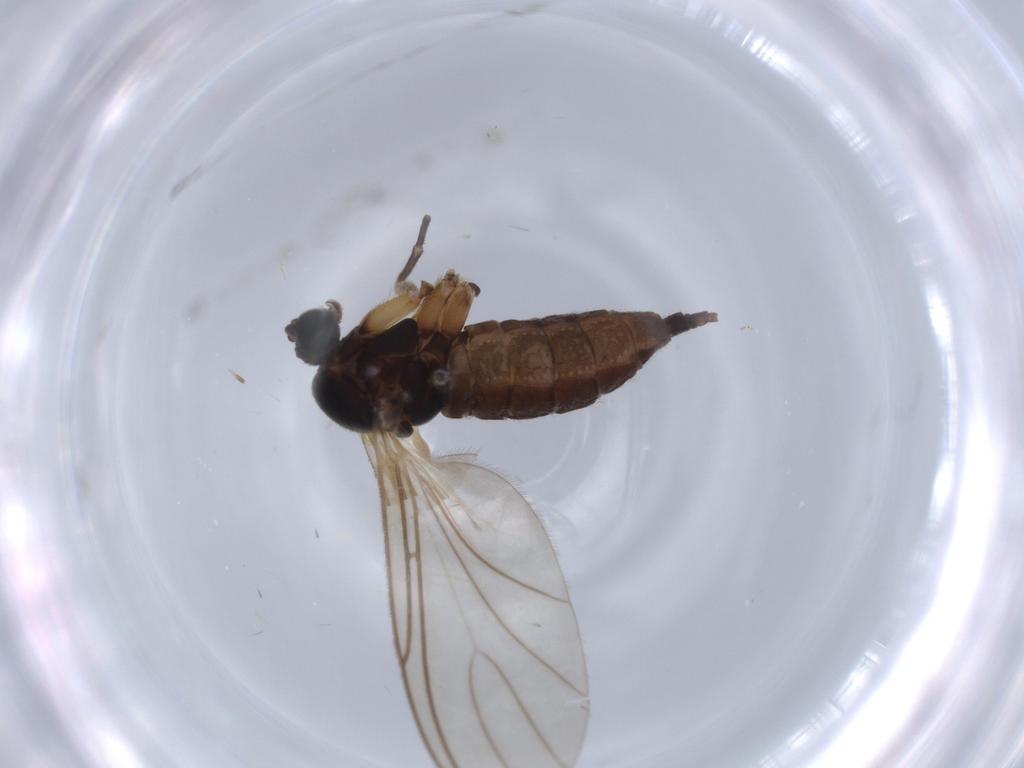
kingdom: Animalia
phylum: Arthropoda
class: Insecta
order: Diptera
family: Sciaridae
